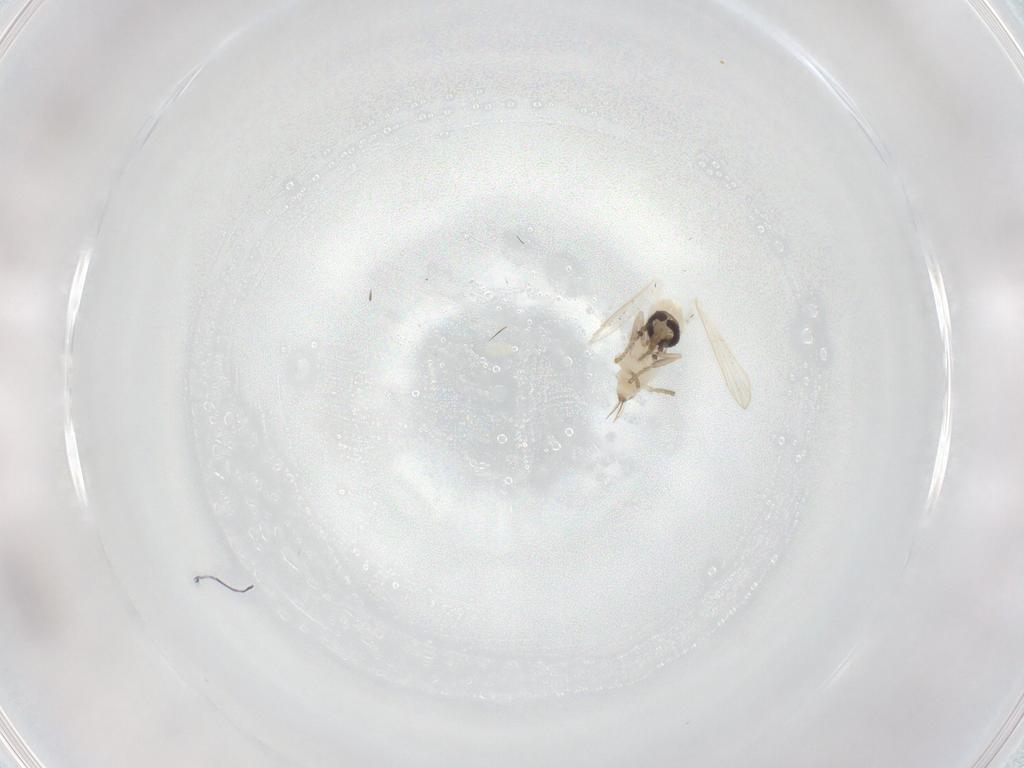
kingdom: Animalia
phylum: Arthropoda
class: Insecta
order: Diptera
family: Psychodidae
